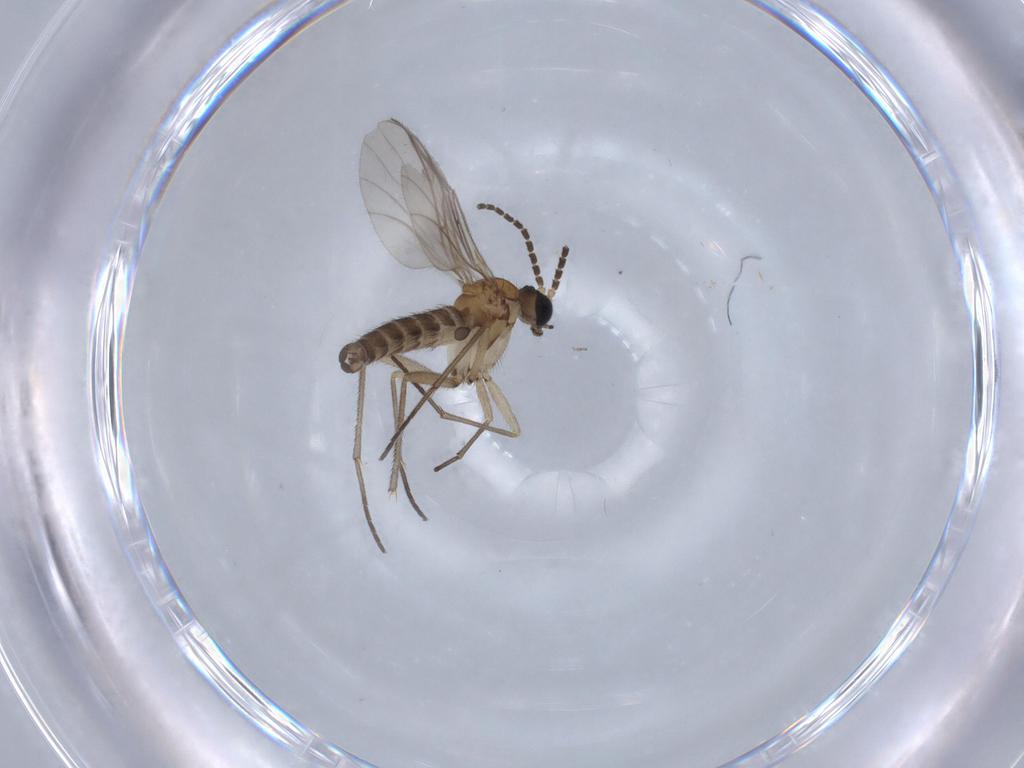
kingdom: Animalia
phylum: Arthropoda
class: Insecta
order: Diptera
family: Sciaridae
